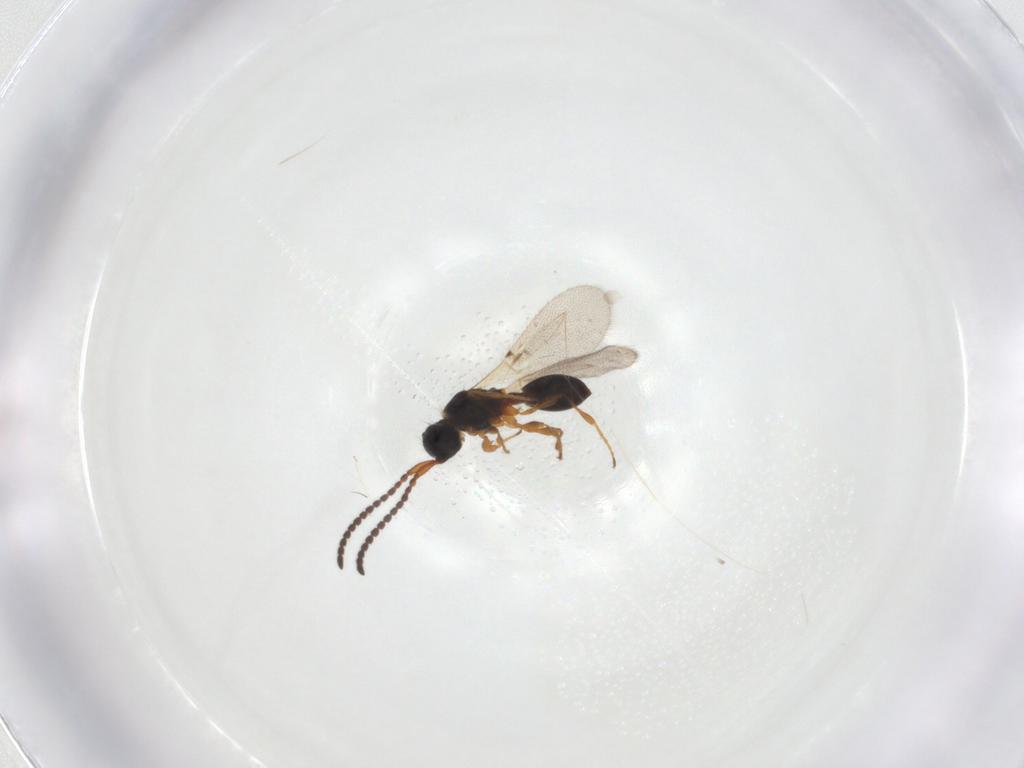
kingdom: Animalia
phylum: Arthropoda
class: Insecta
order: Hymenoptera
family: Diapriidae
